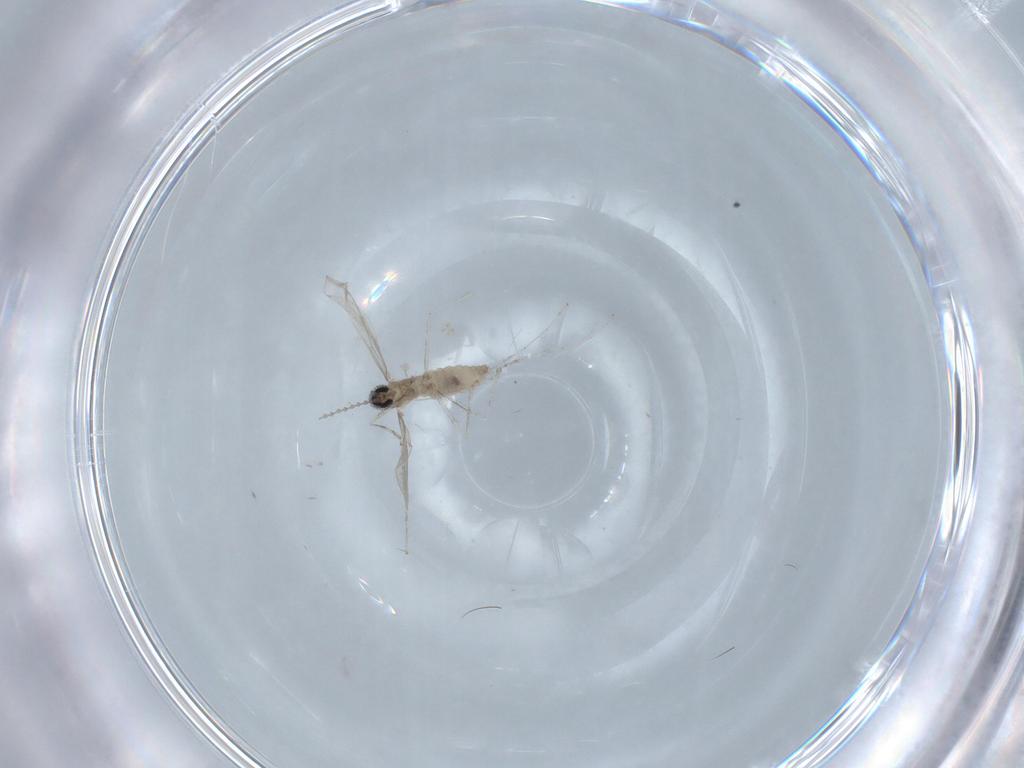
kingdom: Animalia
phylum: Arthropoda
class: Insecta
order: Diptera
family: Cecidomyiidae
